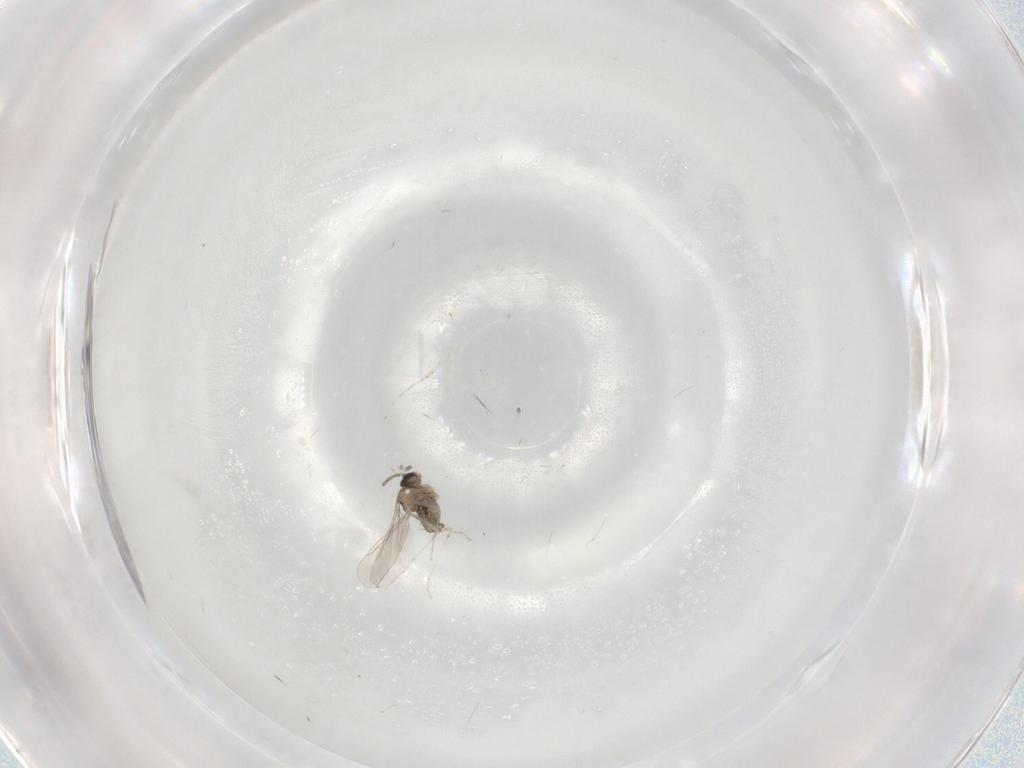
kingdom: Animalia
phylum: Arthropoda
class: Insecta
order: Diptera
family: Cecidomyiidae
